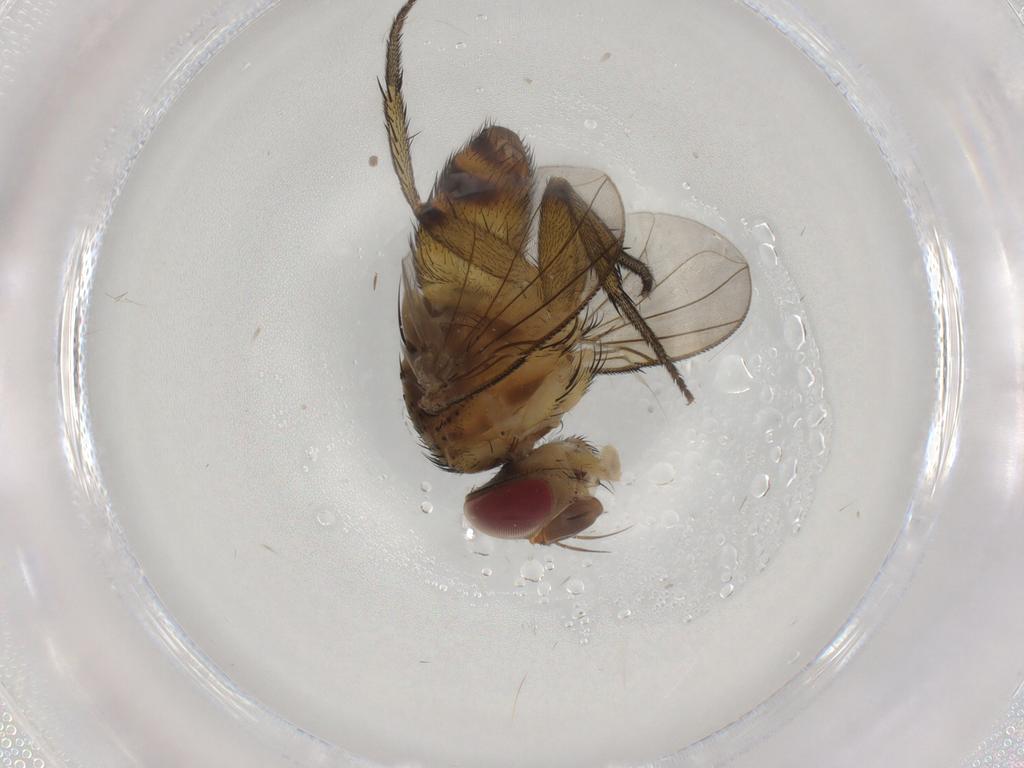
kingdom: Animalia
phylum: Arthropoda
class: Insecta
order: Diptera
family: Tachinidae
